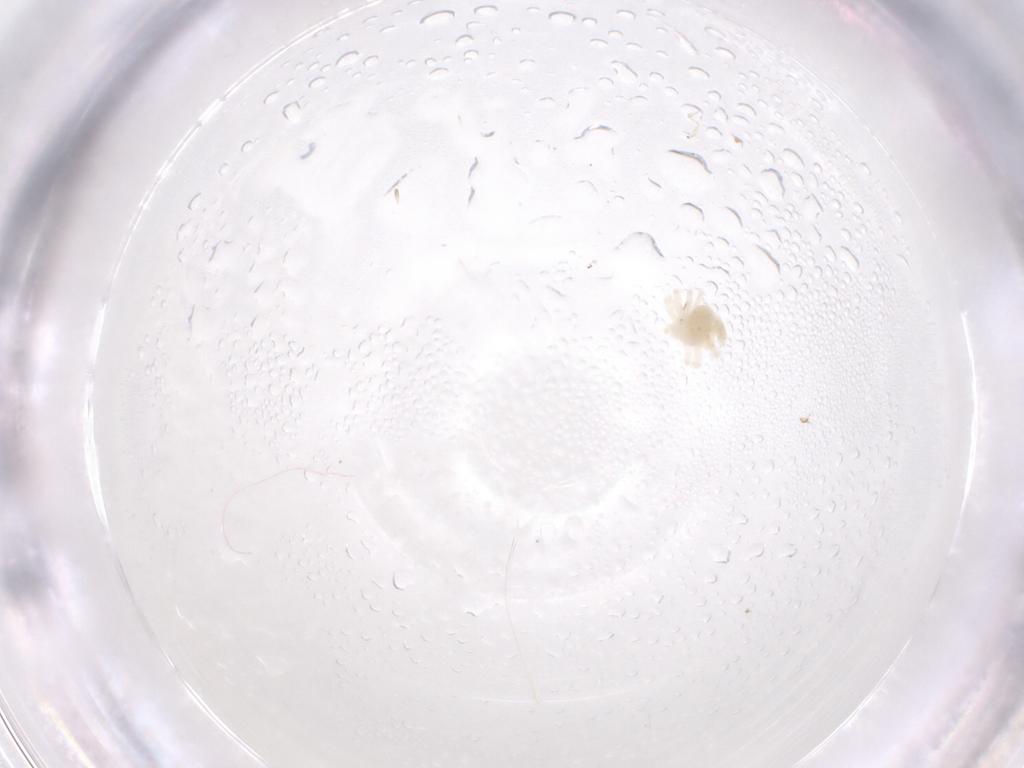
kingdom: Animalia
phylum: Arthropoda
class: Arachnida
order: Trombidiformes
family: Anystidae
